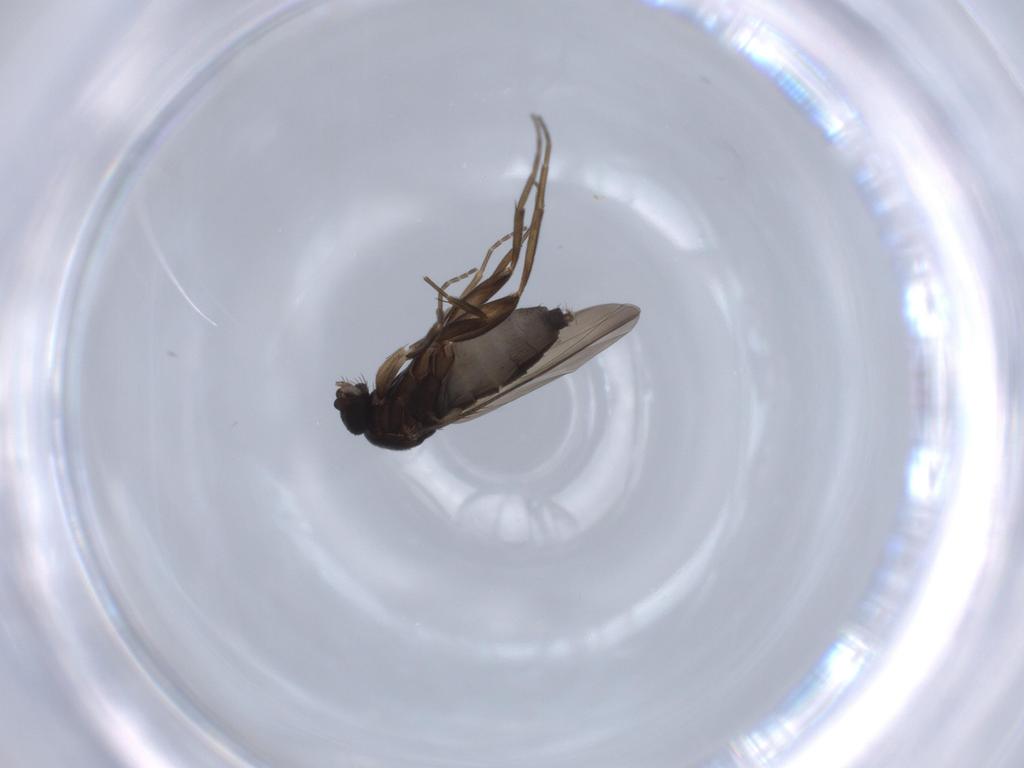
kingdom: Animalia
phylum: Arthropoda
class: Insecta
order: Diptera
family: Phoridae
